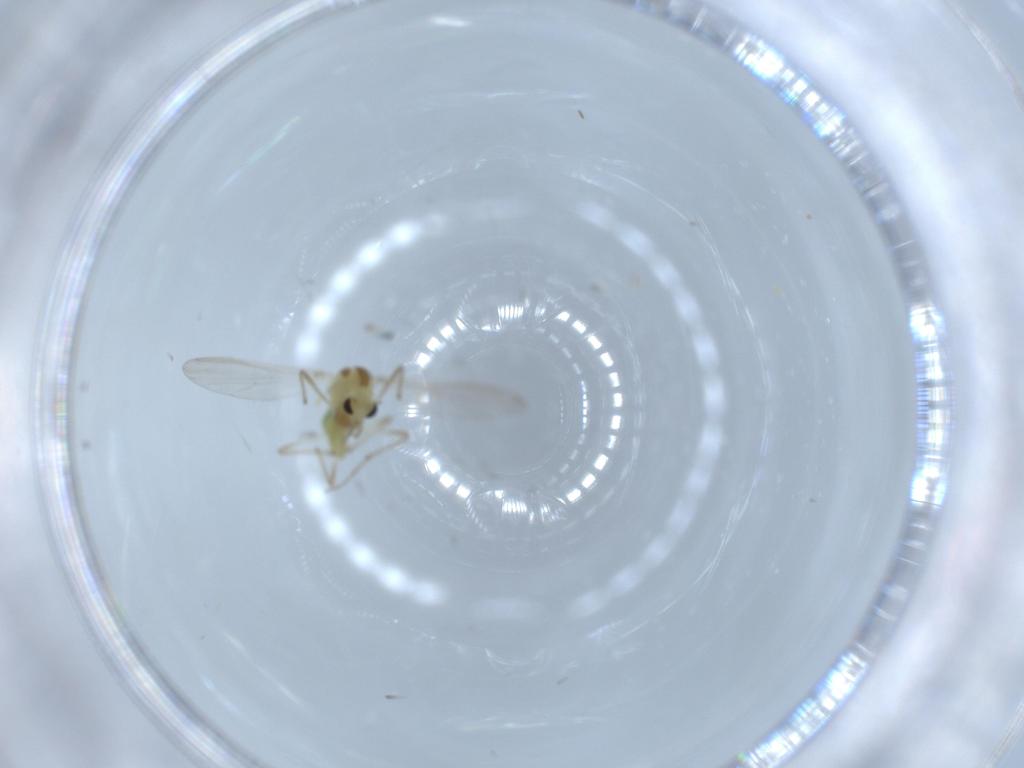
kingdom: Animalia
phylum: Arthropoda
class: Insecta
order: Diptera
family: Chironomidae
